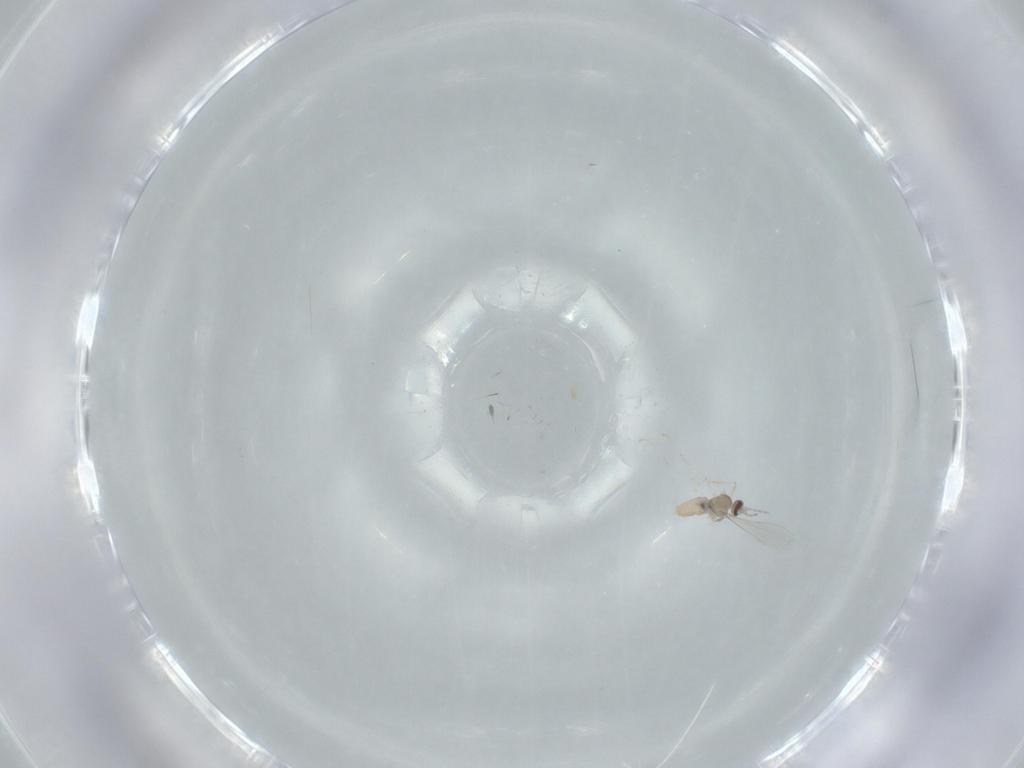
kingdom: Animalia
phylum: Arthropoda
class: Insecta
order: Diptera
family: Cecidomyiidae
